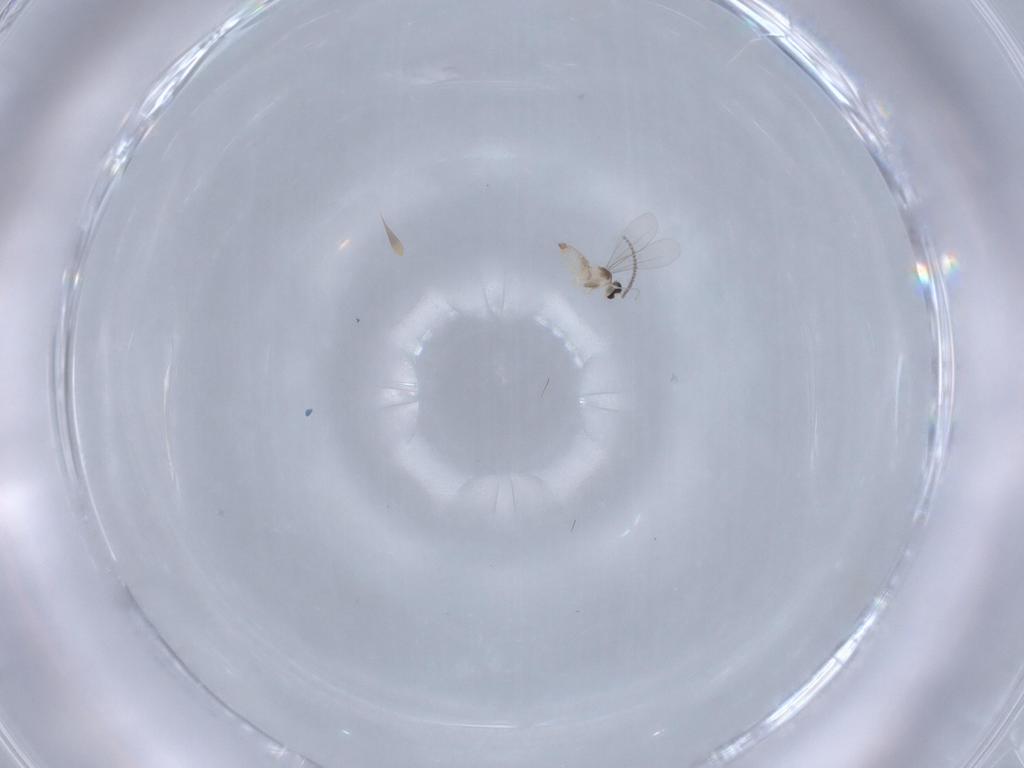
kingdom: Animalia
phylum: Arthropoda
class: Insecta
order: Diptera
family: Cecidomyiidae
